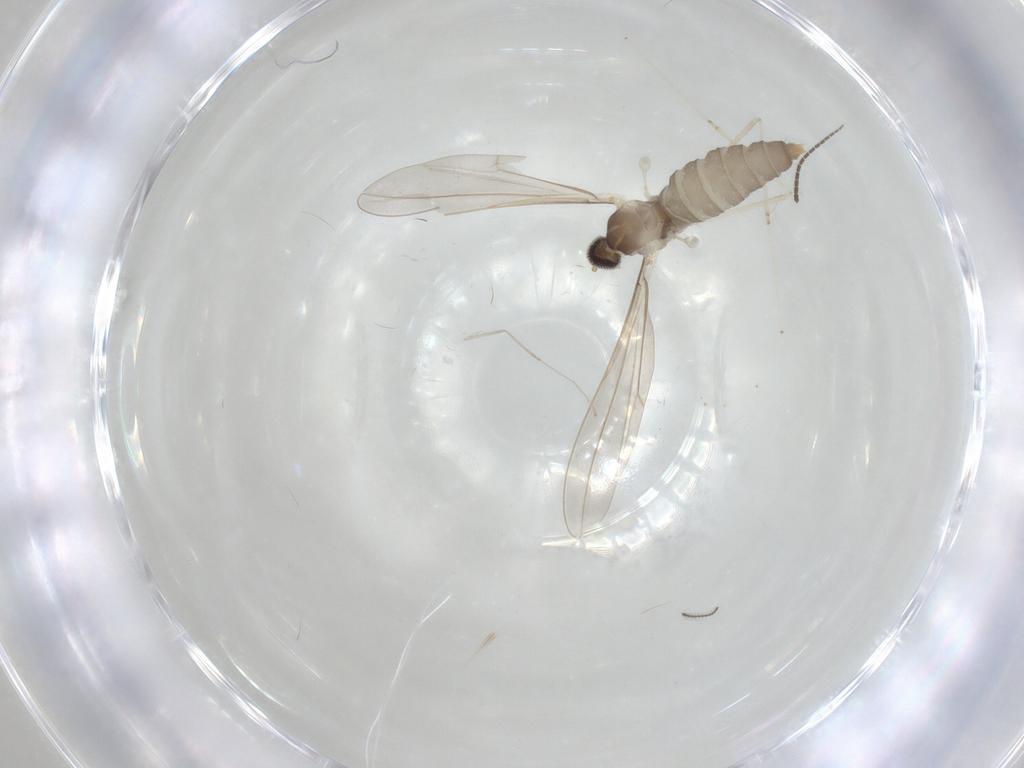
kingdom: Animalia
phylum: Arthropoda
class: Insecta
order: Diptera
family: Cecidomyiidae
